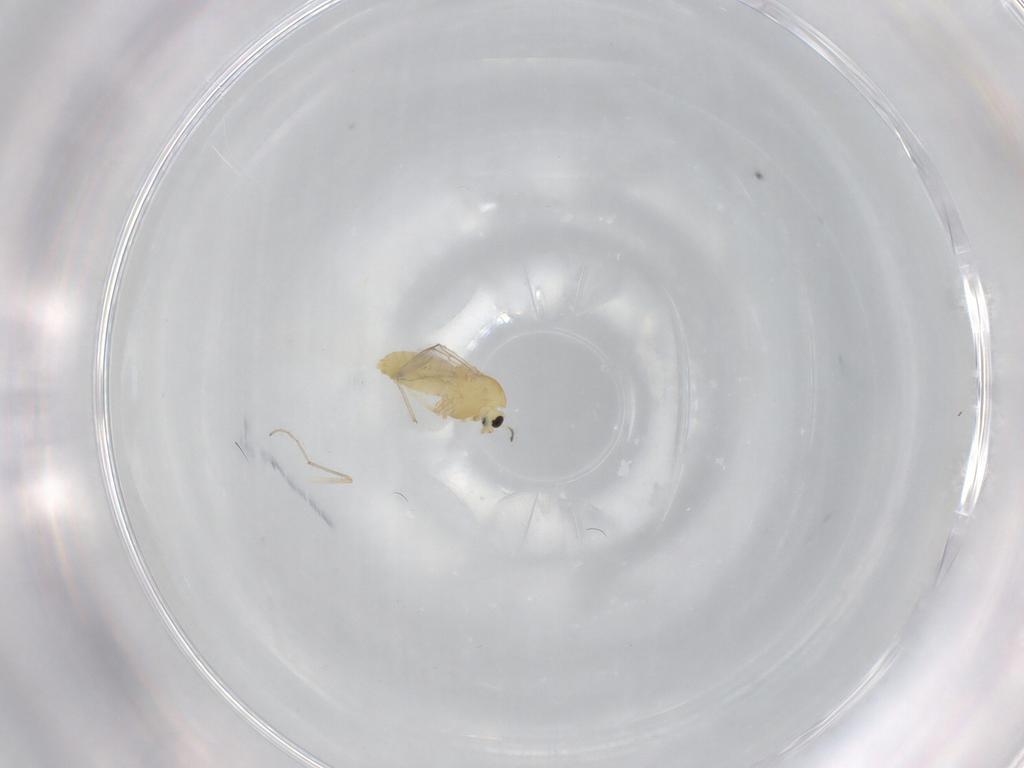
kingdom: Animalia
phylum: Arthropoda
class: Insecta
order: Diptera
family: Chironomidae
